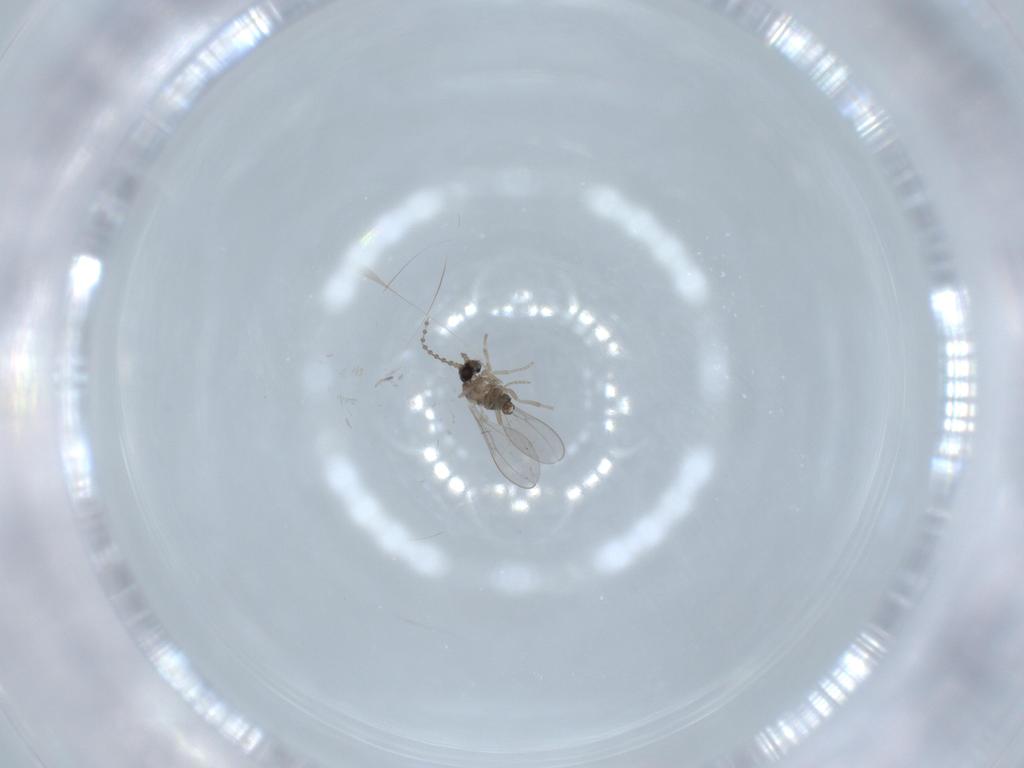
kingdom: Animalia
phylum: Arthropoda
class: Insecta
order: Diptera
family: Cecidomyiidae
